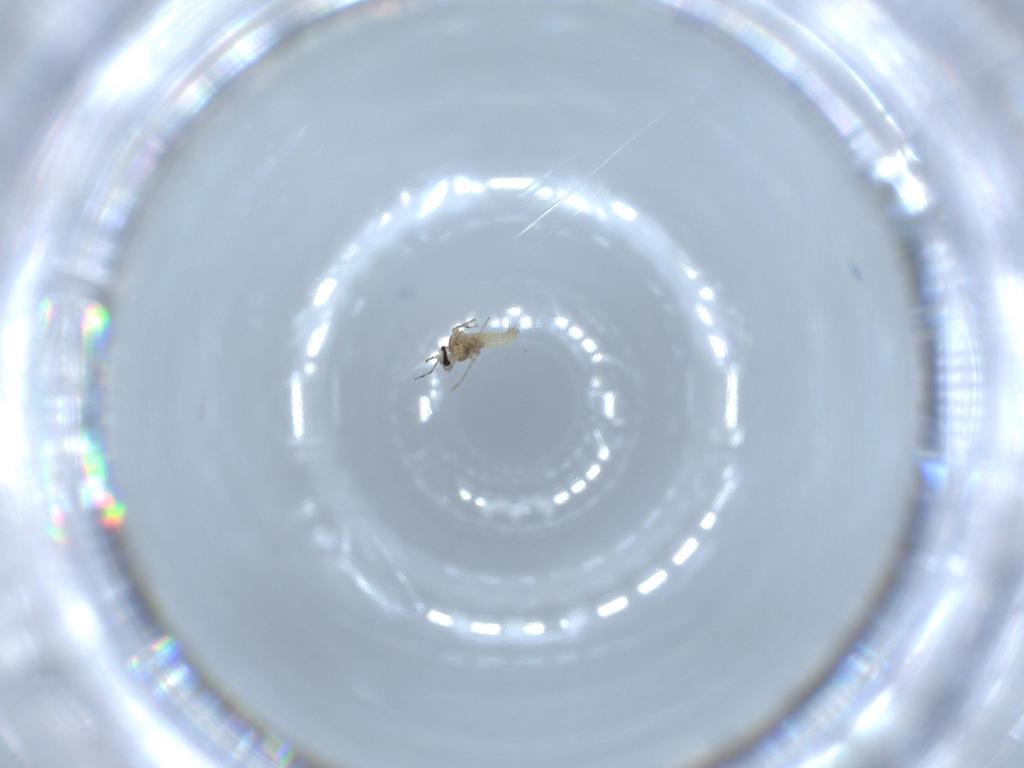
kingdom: Animalia
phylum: Arthropoda
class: Insecta
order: Diptera
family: Cecidomyiidae
